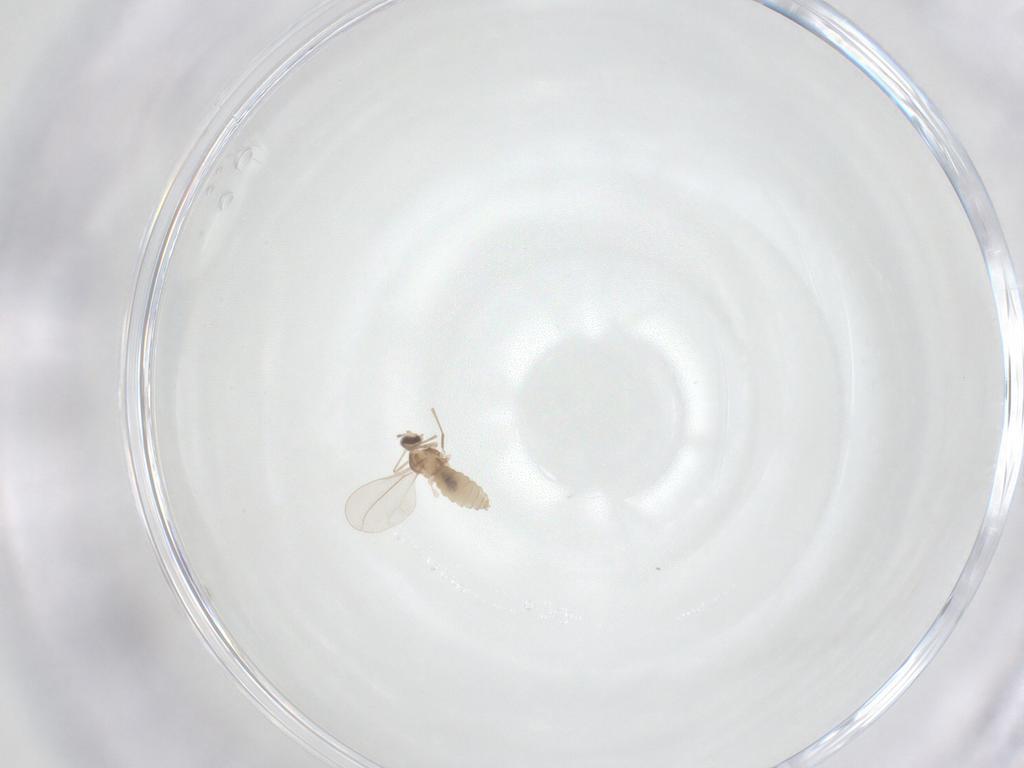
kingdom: Animalia
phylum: Arthropoda
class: Insecta
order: Diptera
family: Cecidomyiidae
